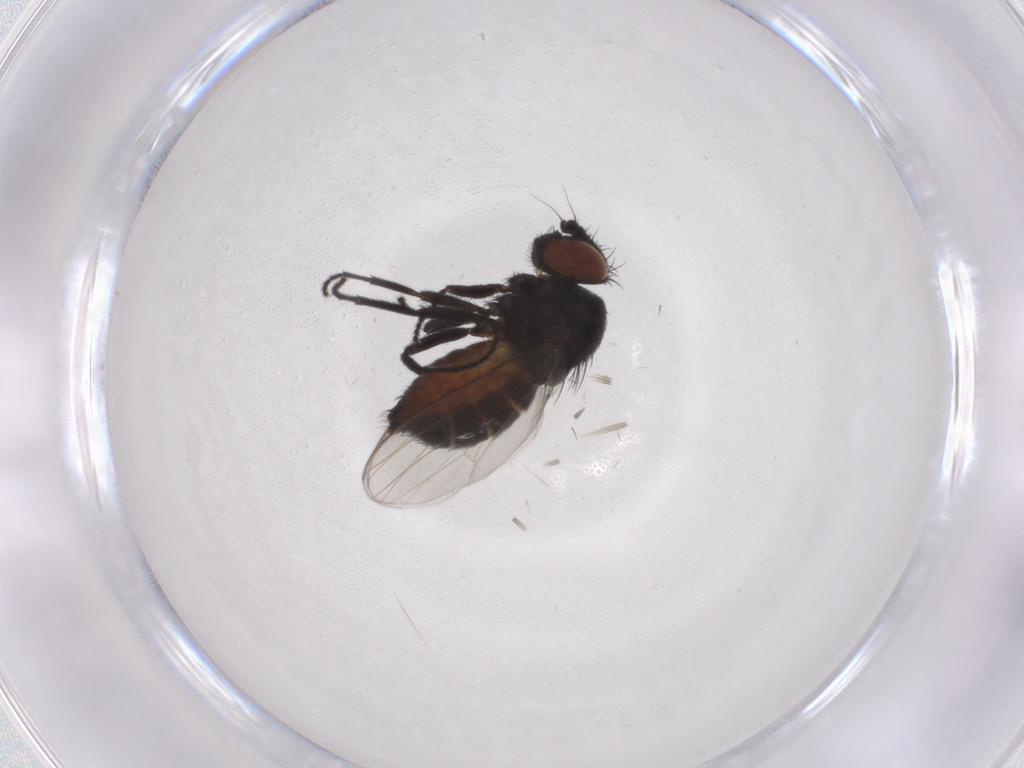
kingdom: Animalia
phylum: Arthropoda
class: Insecta
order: Diptera
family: Milichiidae
